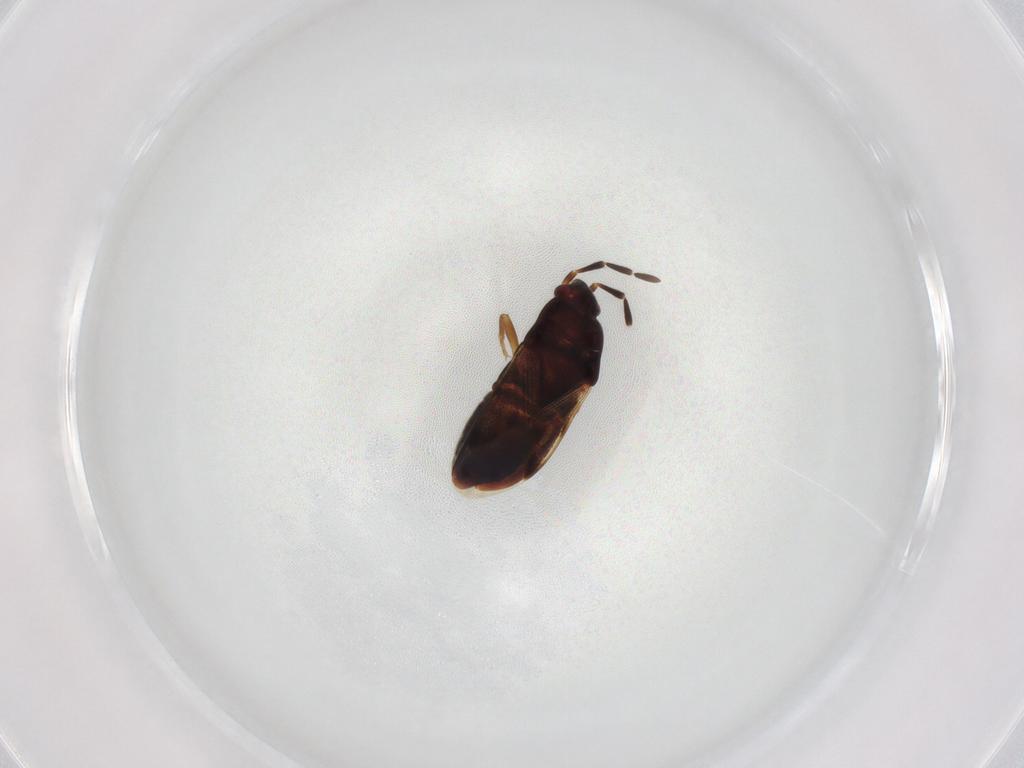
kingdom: Animalia
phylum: Arthropoda
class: Insecta
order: Hemiptera
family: Rhyparochromidae
